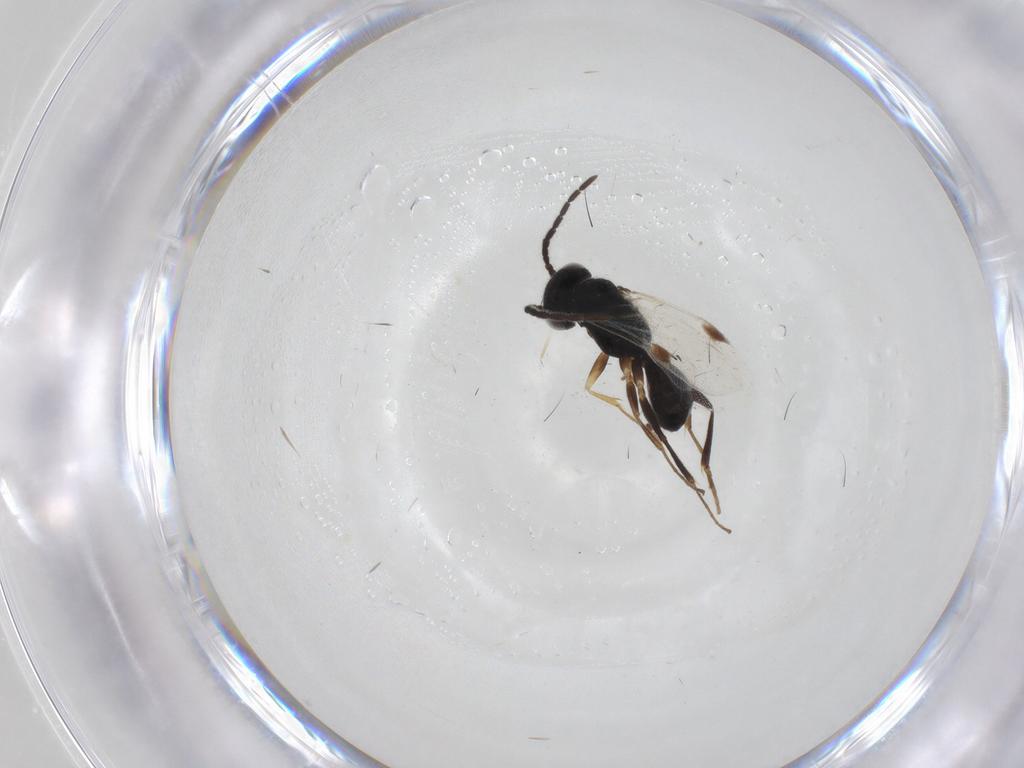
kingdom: Animalia
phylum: Arthropoda
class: Insecta
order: Hymenoptera
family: Dryinidae
